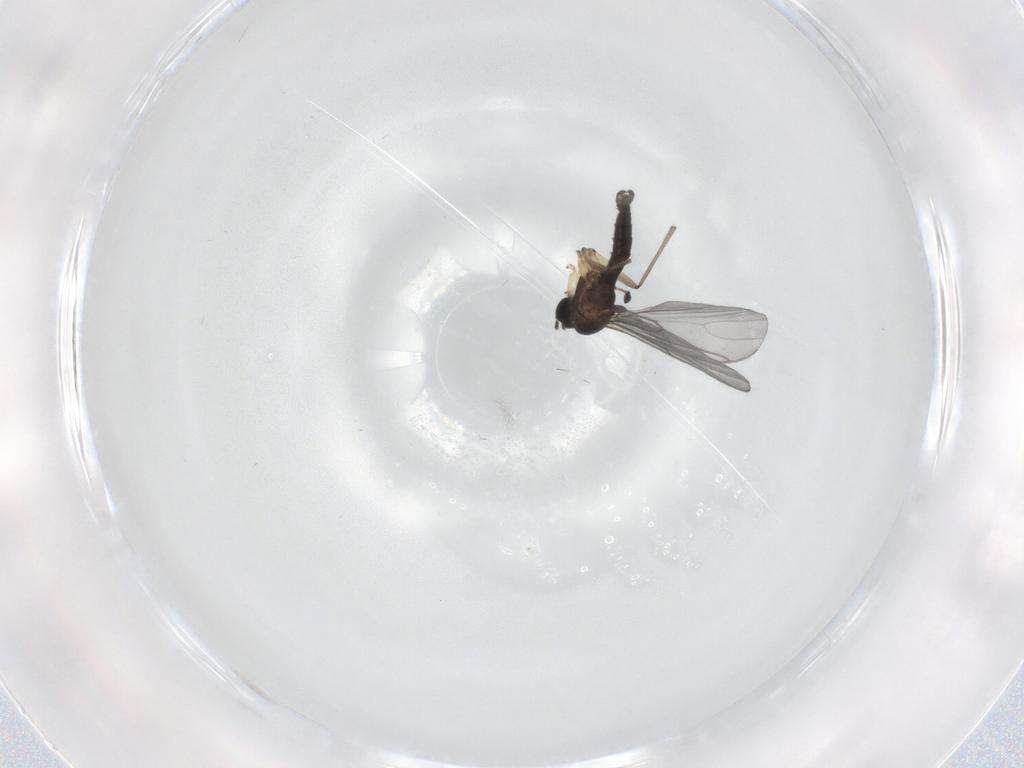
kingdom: Animalia
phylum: Arthropoda
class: Insecta
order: Diptera
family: Sciaridae
